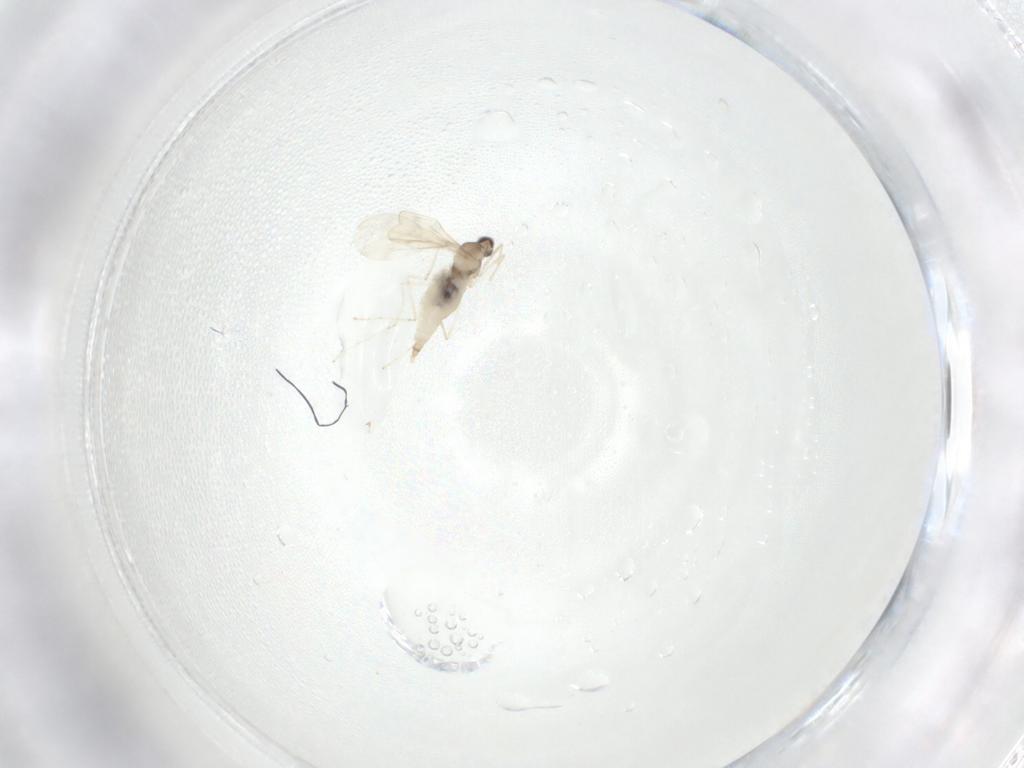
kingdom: Animalia
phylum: Arthropoda
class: Insecta
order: Diptera
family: Cecidomyiidae
